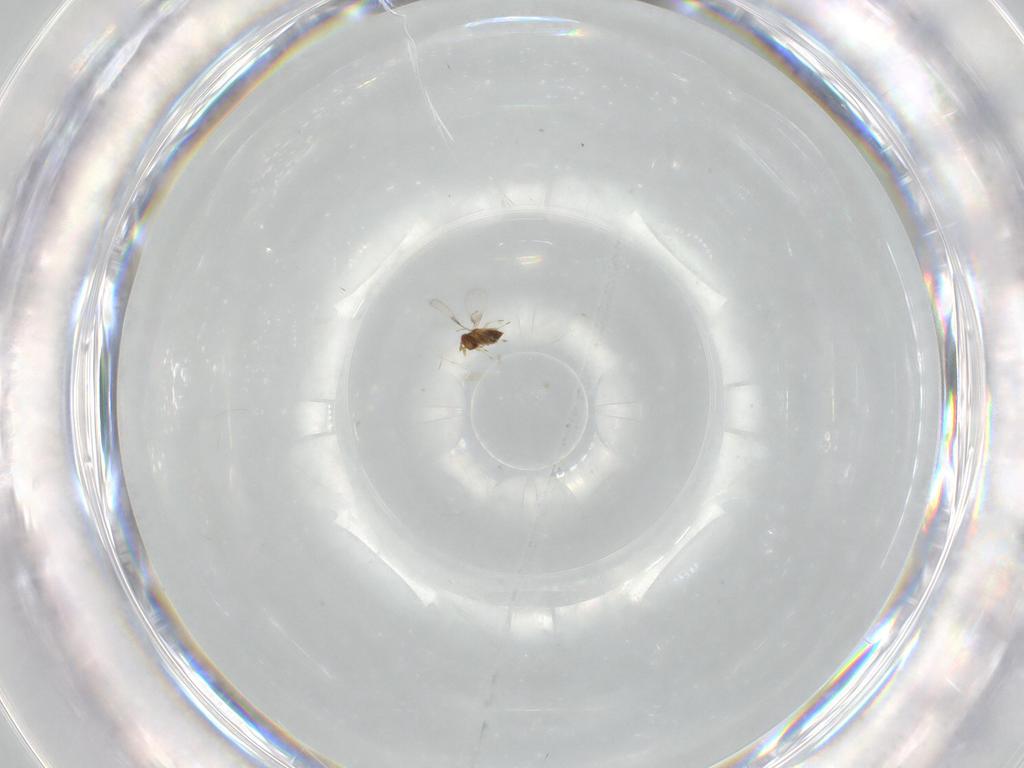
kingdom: Animalia
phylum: Arthropoda
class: Insecta
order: Hymenoptera
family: Trichogrammatidae
